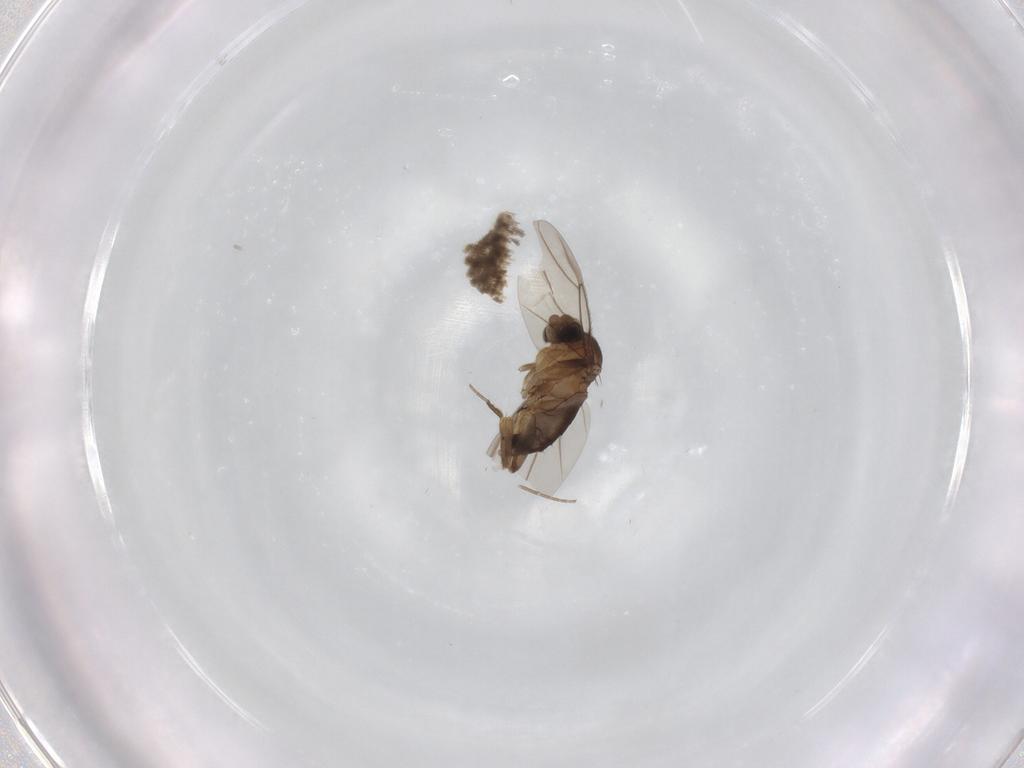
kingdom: Animalia
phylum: Arthropoda
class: Insecta
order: Diptera
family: Phoridae
